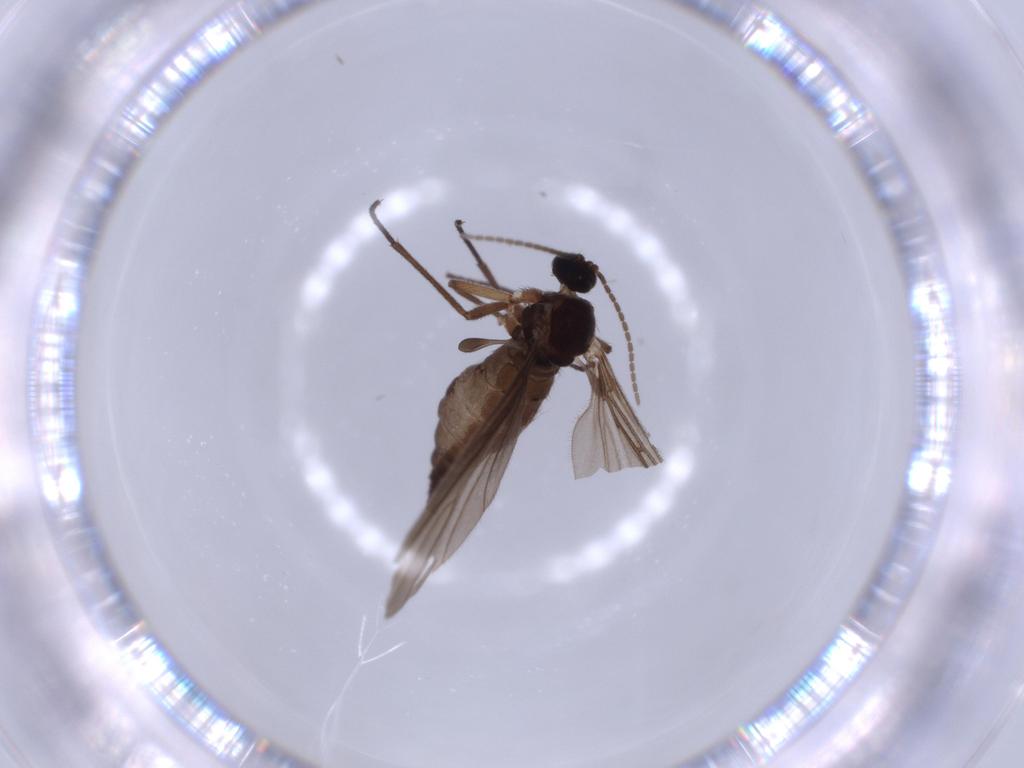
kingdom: Animalia
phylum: Arthropoda
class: Insecta
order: Diptera
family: Sciaridae
